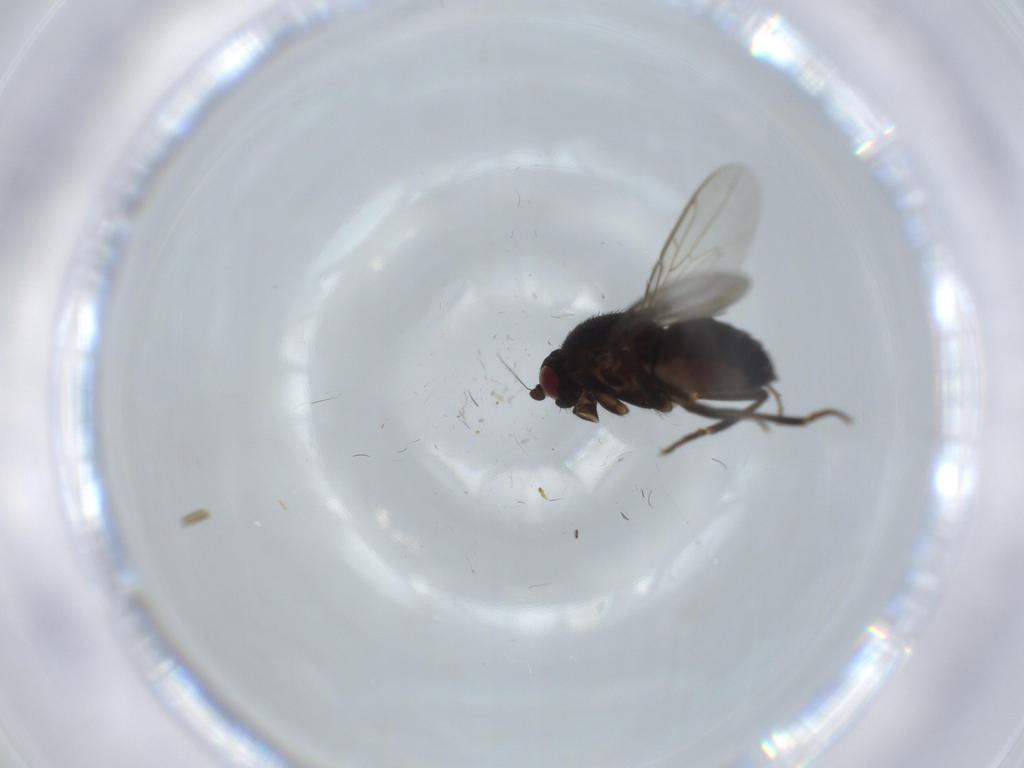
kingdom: Animalia
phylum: Arthropoda
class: Insecta
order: Diptera
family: Sphaeroceridae
